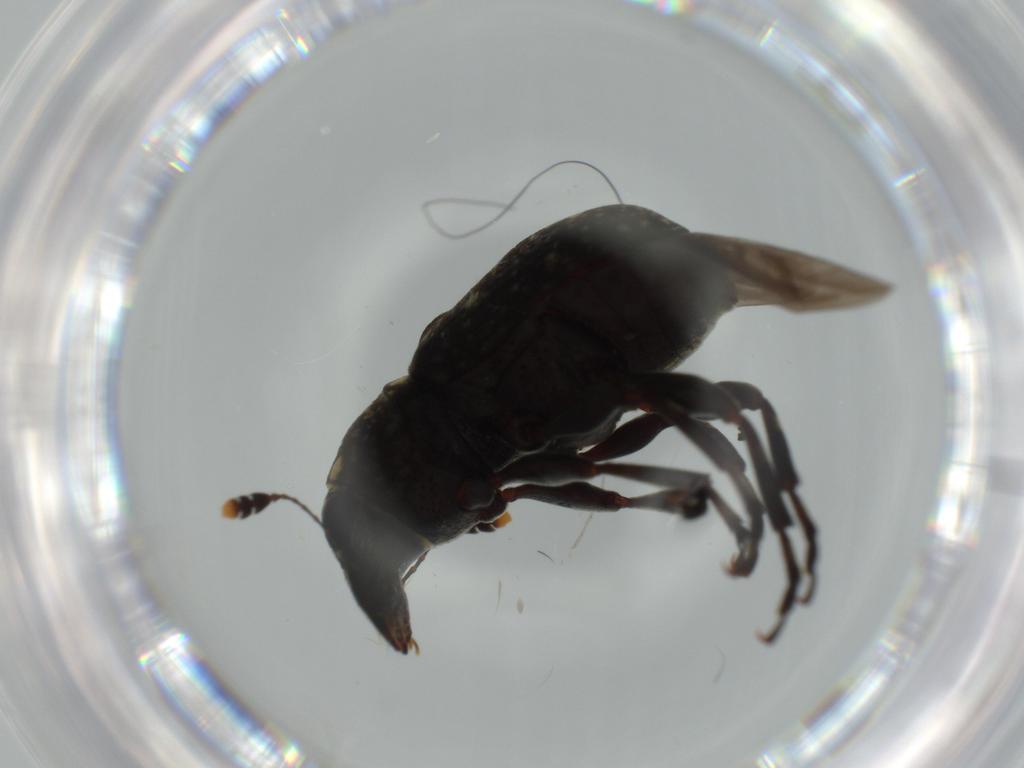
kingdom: Animalia
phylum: Arthropoda
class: Insecta
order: Coleoptera
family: Anthribidae
